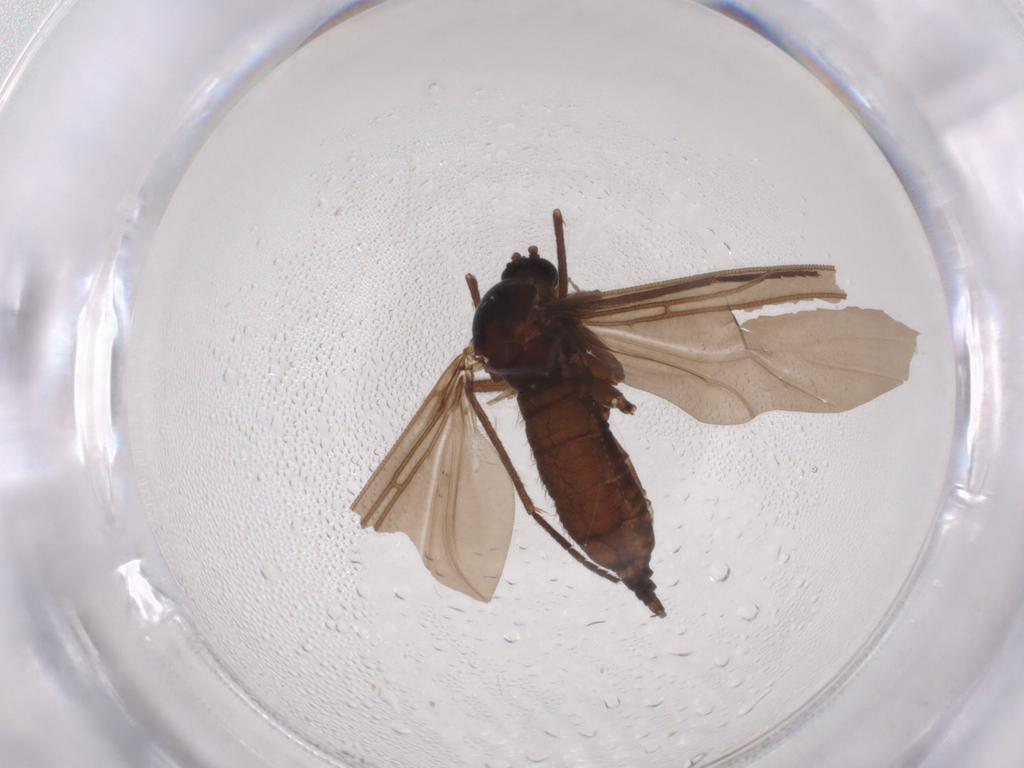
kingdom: Animalia
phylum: Arthropoda
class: Insecta
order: Diptera
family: Sciaridae
